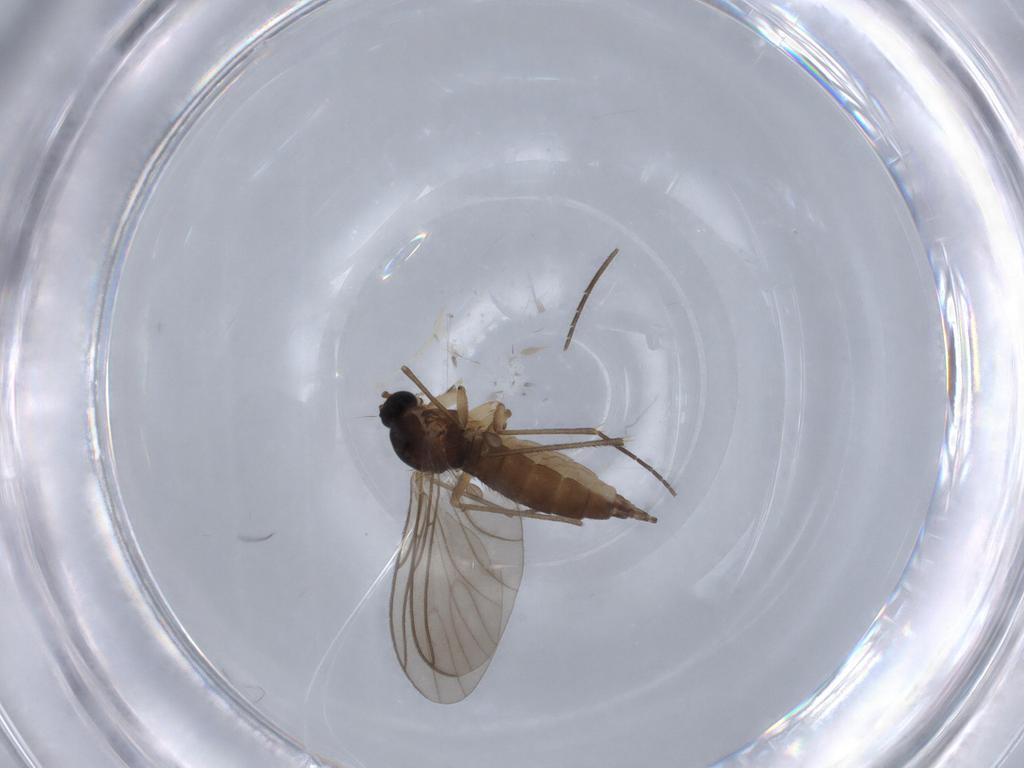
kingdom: Animalia
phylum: Arthropoda
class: Insecta
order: Diptera
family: Sciaridae
